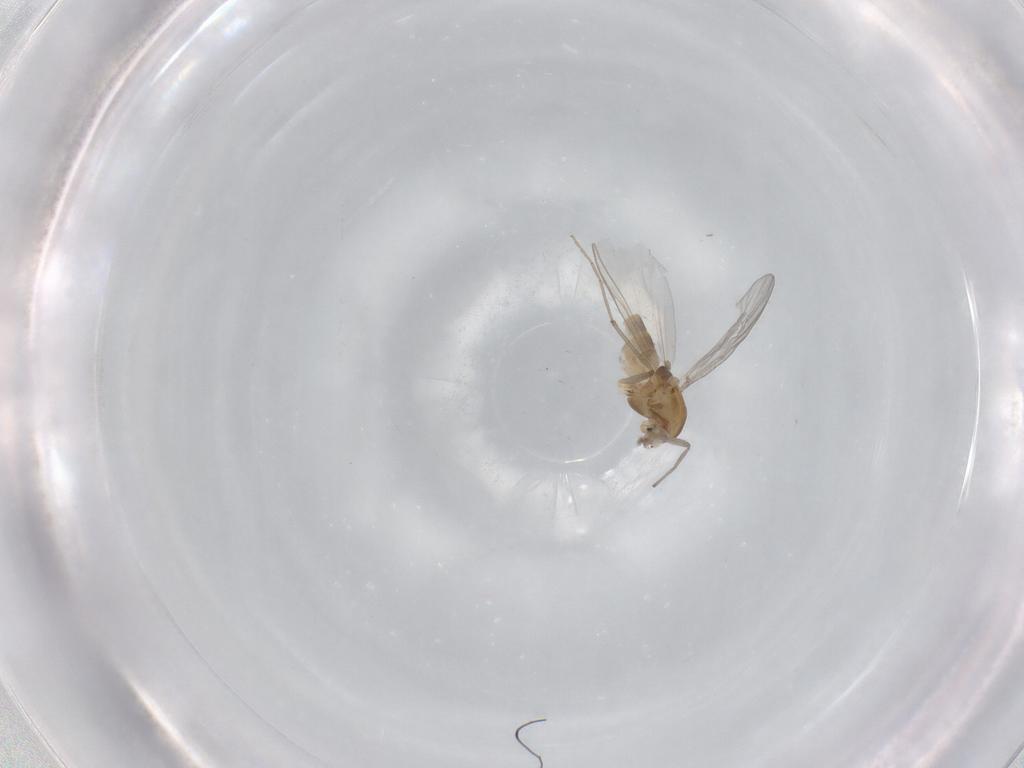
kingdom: Animalia
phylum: Arthropoda
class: Insecta
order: Diptera
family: Chironomidae
